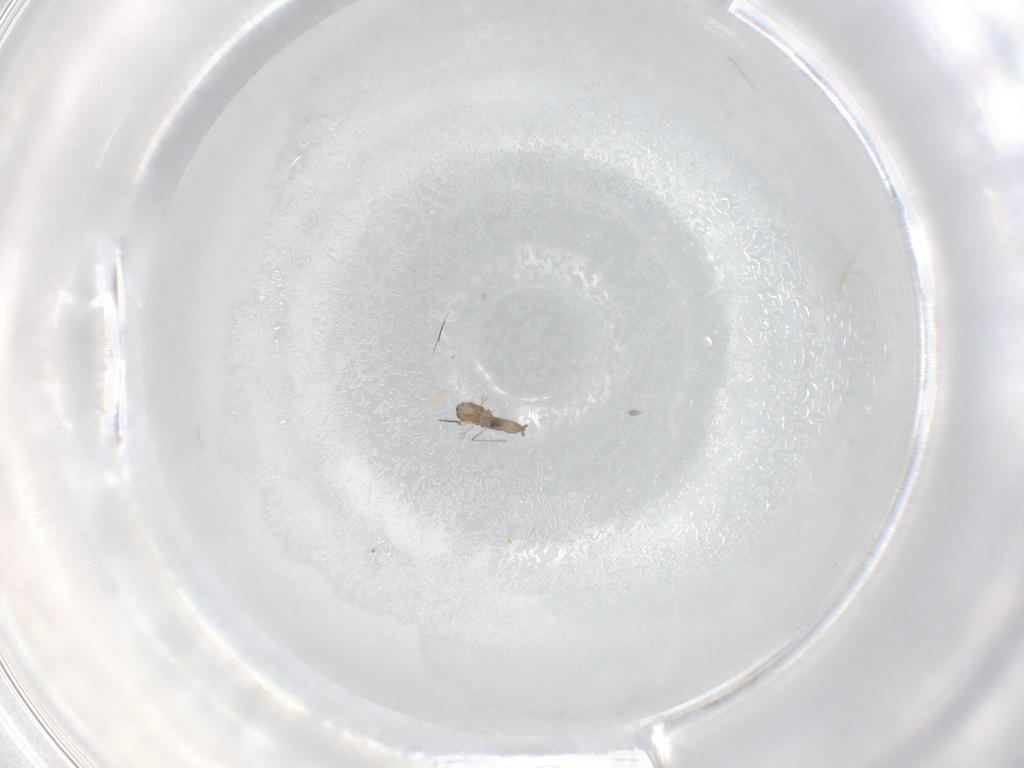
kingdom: Animalia
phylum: Arthropoda
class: Insecta
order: Diptera
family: Cecidomyiidae
